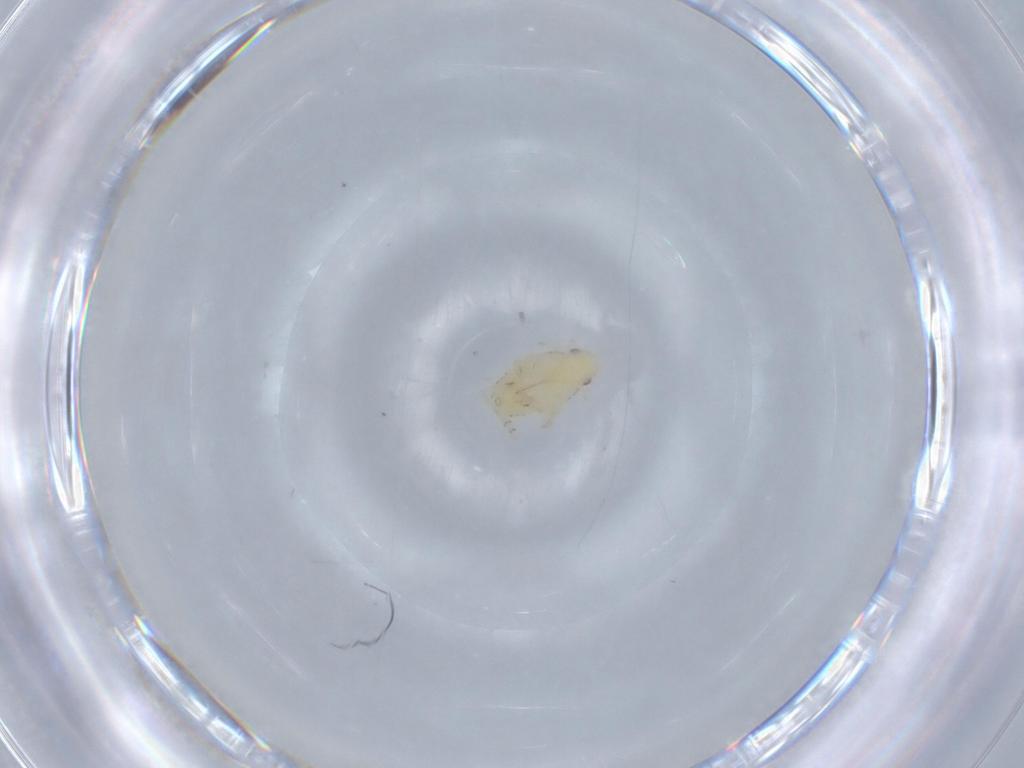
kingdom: Animalia
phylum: Arthropoda
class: Insecta
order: Hemiptera
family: Flatidae
